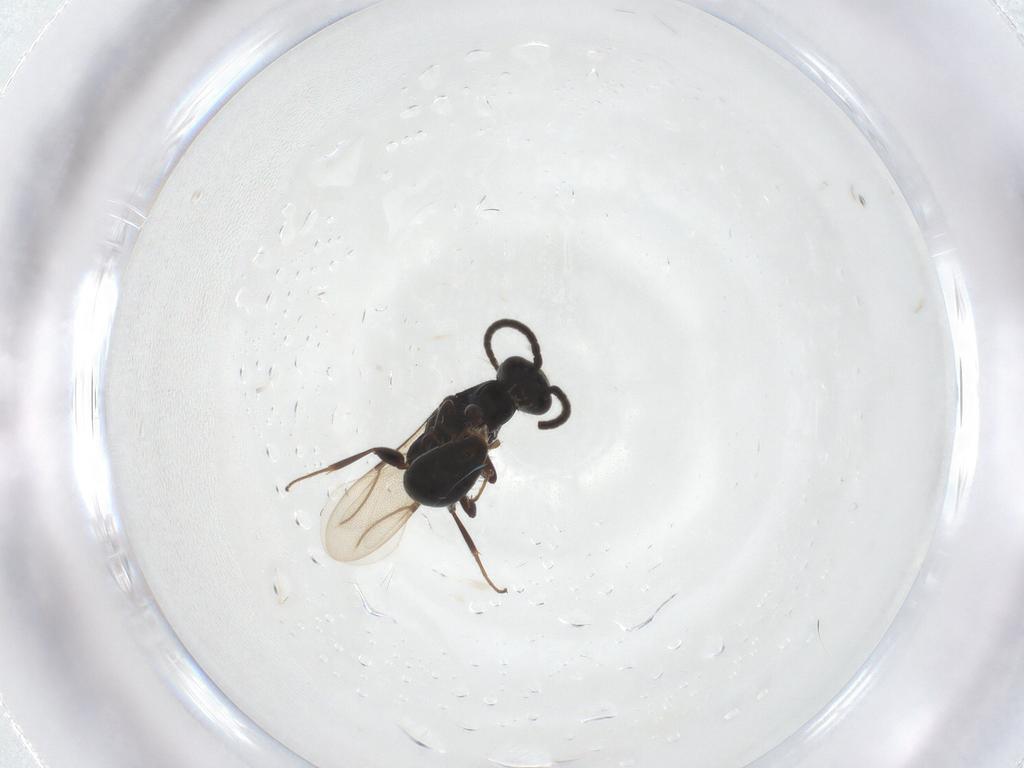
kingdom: Animalia
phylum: Arthropoda
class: Insecta
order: Hymenoptera
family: Bethylidae
